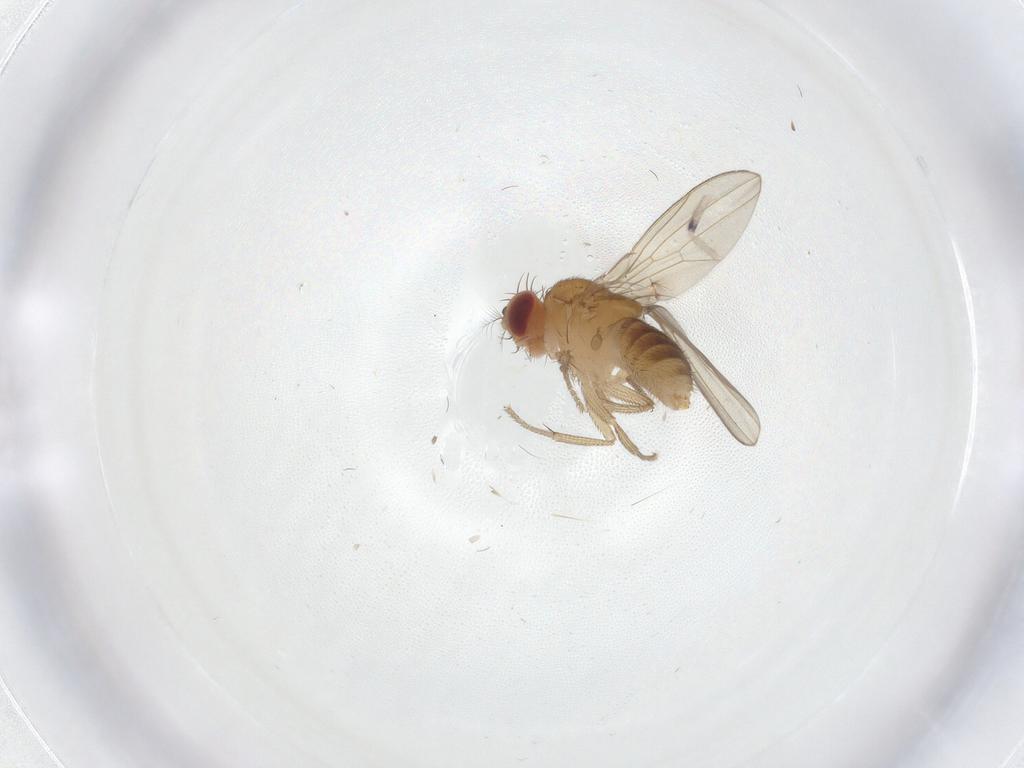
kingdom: Animalia
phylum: Arthropoda
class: Insecta
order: Diptera
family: Drosophilidae
